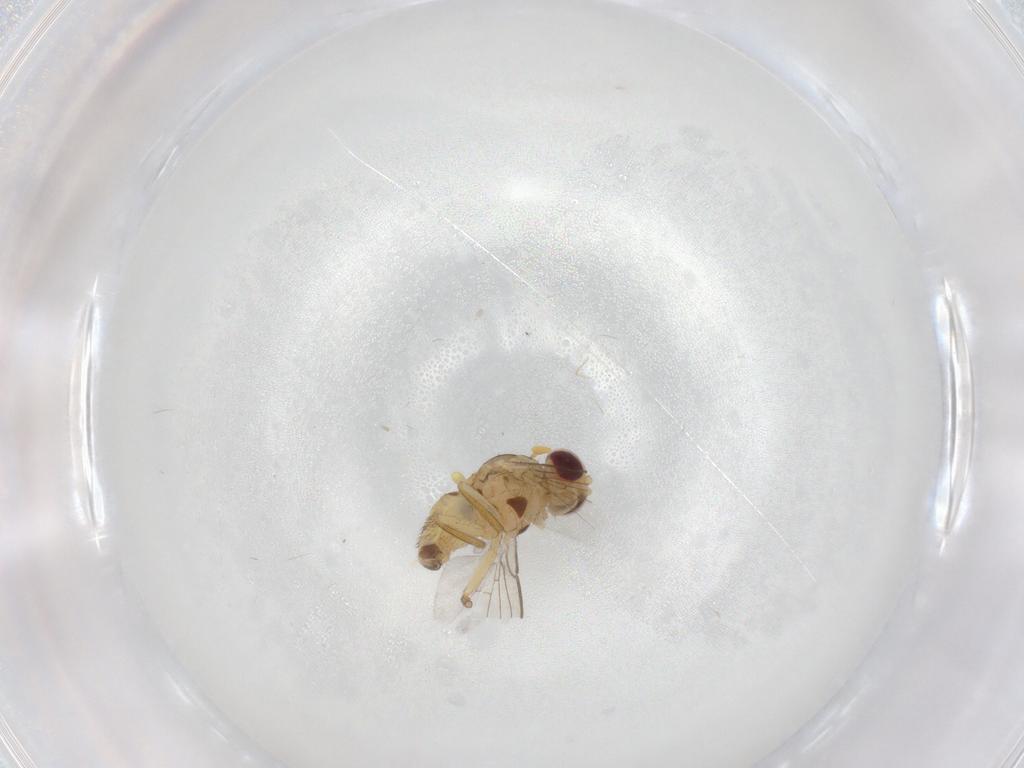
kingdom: Animalia
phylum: Arthropoda
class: Insecta
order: Diptera
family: Agromyzidae
